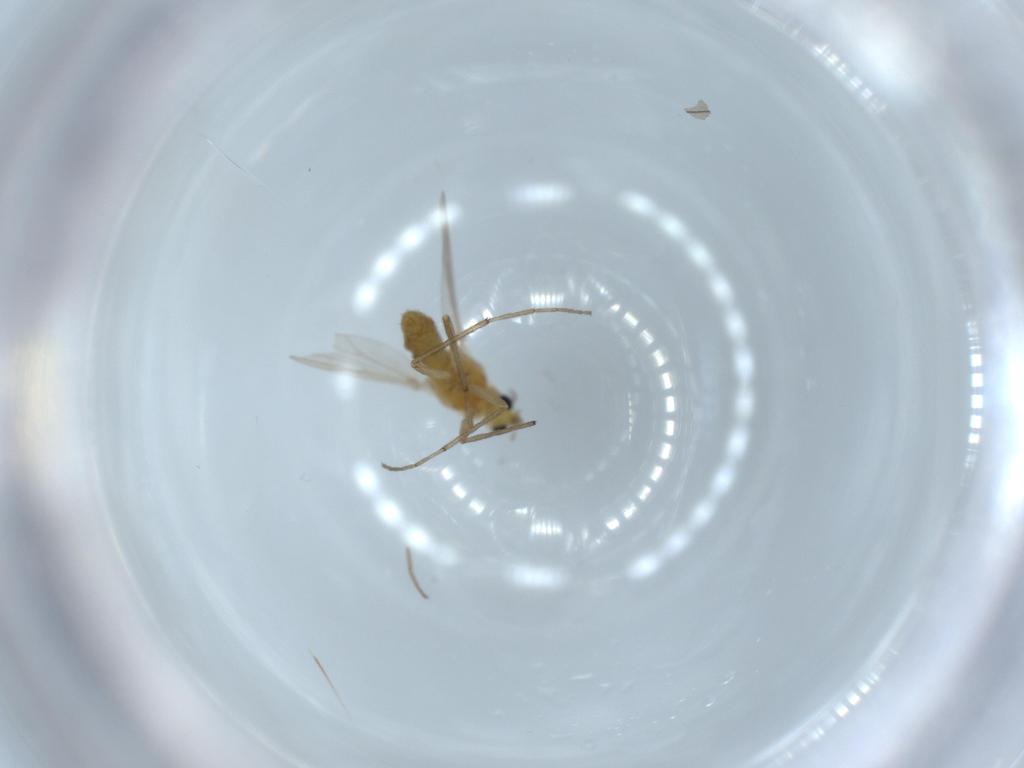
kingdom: Animalia
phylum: Arthropoda
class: Insecta
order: Diptera
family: Chironomidae
